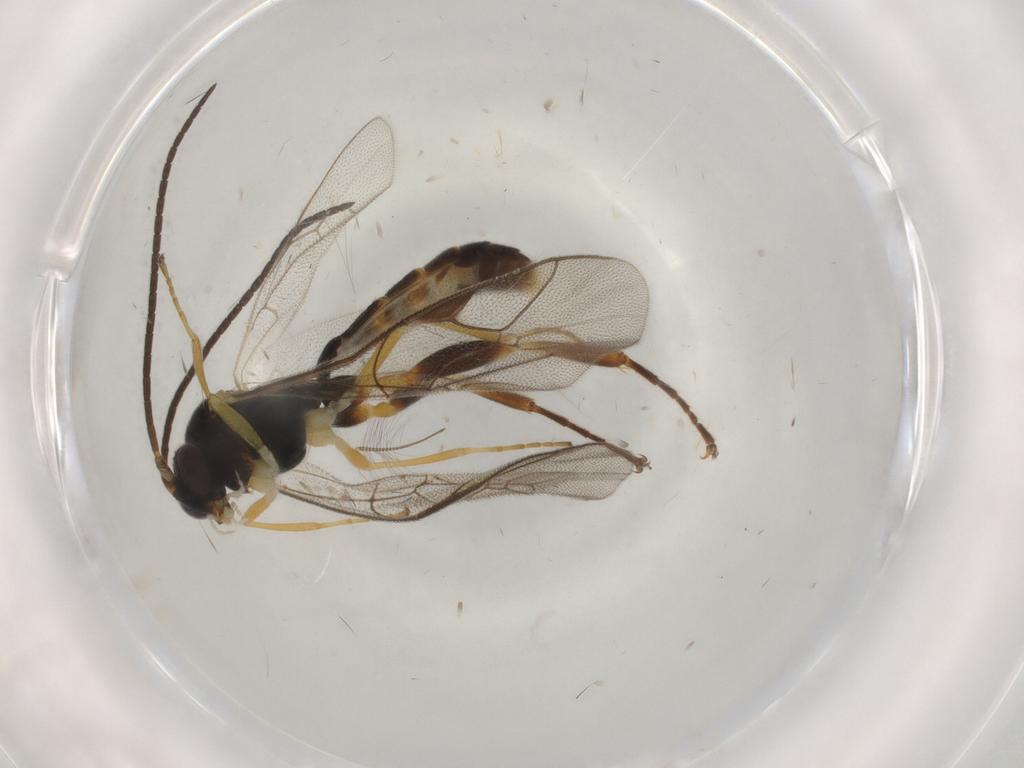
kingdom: Animalia
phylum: Arthropoda
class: Insecta
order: Hymenoptera
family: Ichneumonidae
